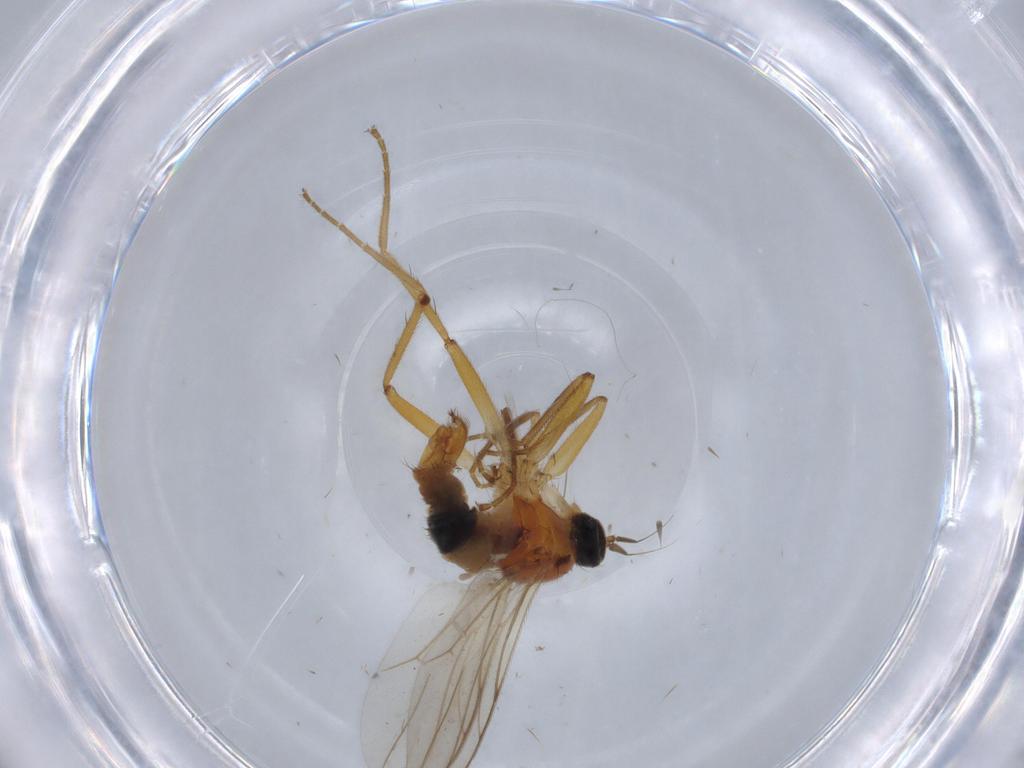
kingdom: Animalia
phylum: Arthropoda
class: Insecta
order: Diptera
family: Hybotidae
